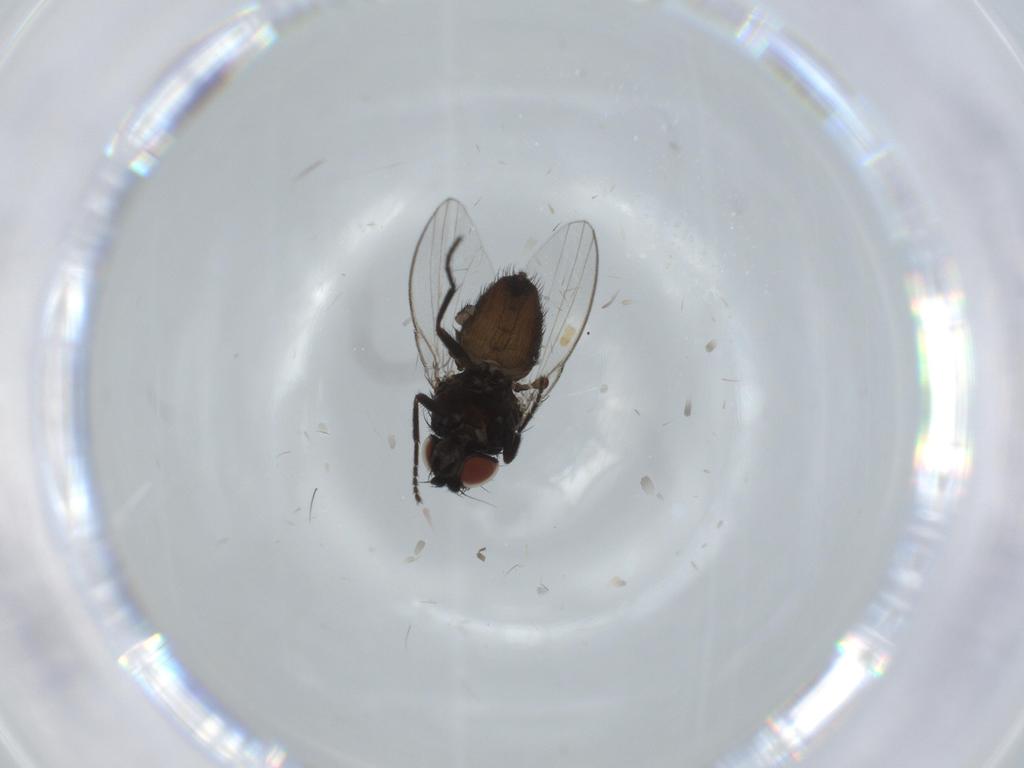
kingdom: Animalia
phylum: Arthropoda
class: Insecta
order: Diptera
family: Milichiidae
